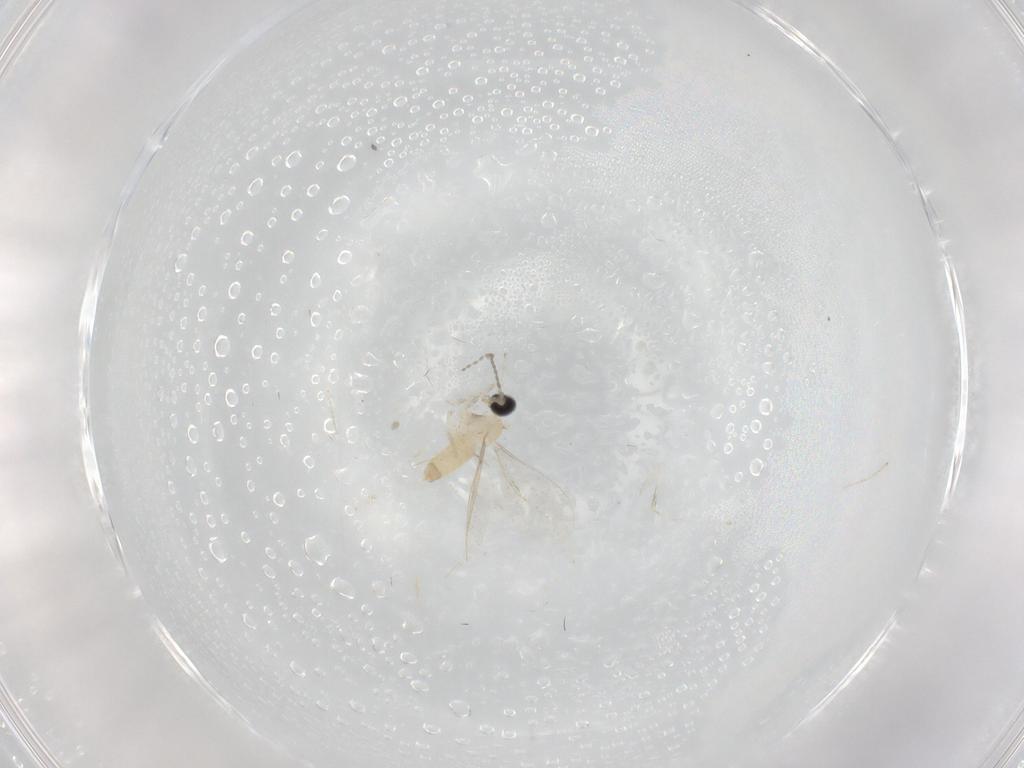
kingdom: Animalia
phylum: Arthropoda
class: Insecta
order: Diptera
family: Cecidomyiidae
